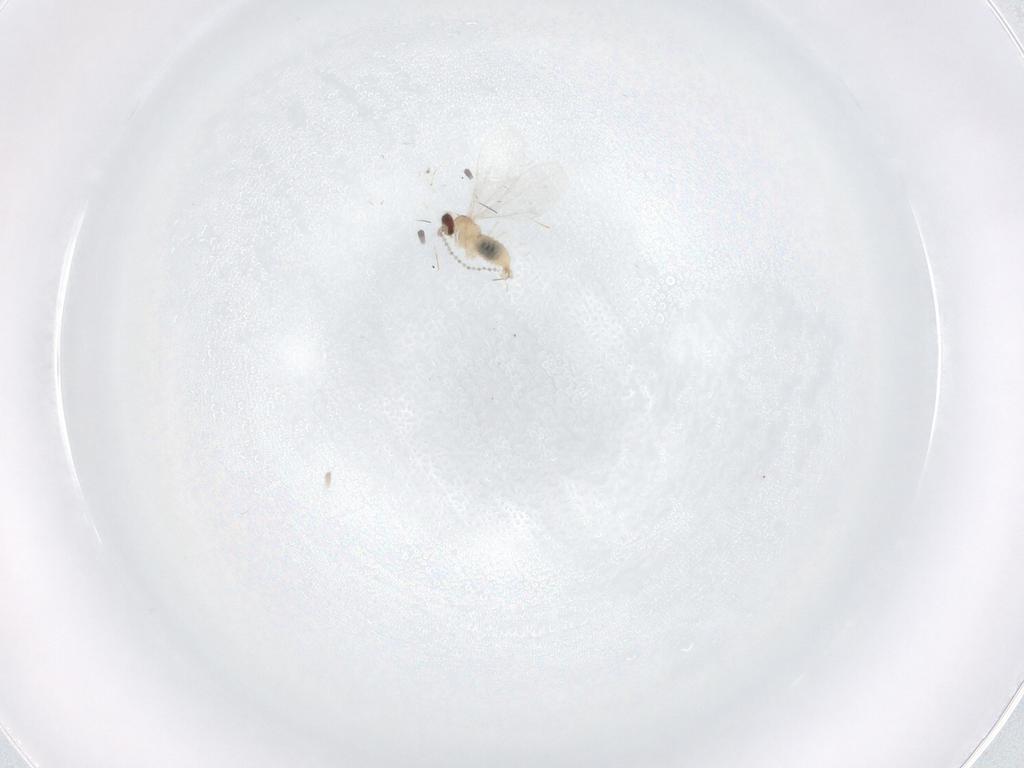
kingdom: Animalia
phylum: Arthropoda
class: Insecta
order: Diptera
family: Cecidomyiidae
